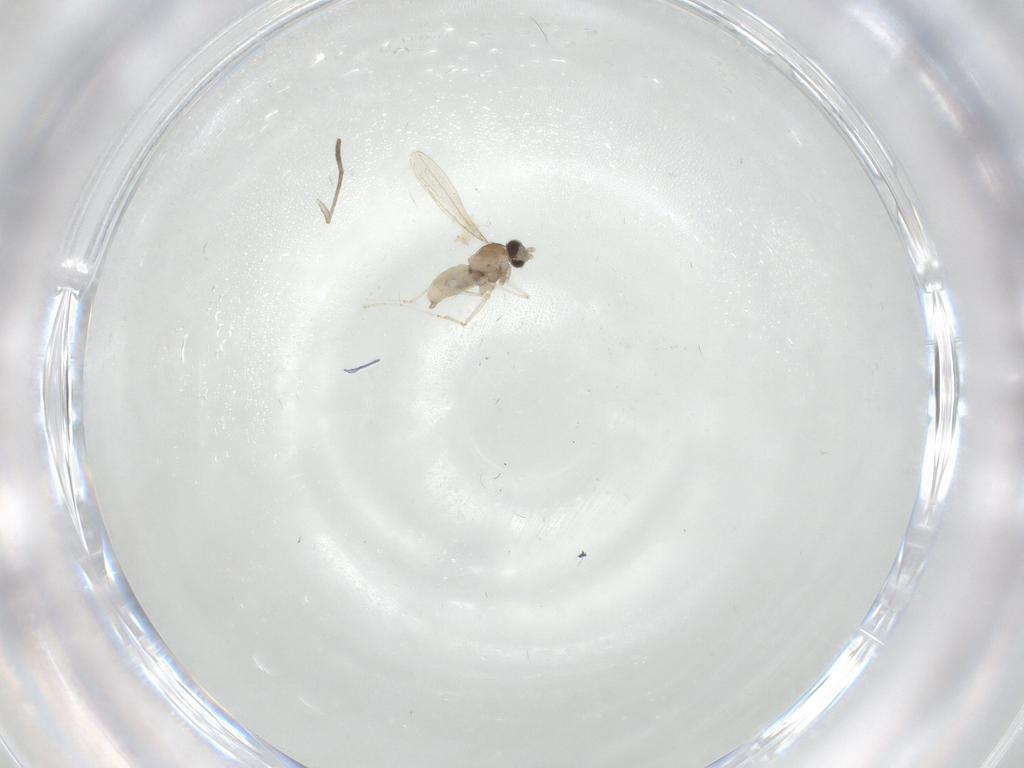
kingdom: Animalia
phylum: Arthropoda
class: Insecta
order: Diptera
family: Cecidomyiidae
